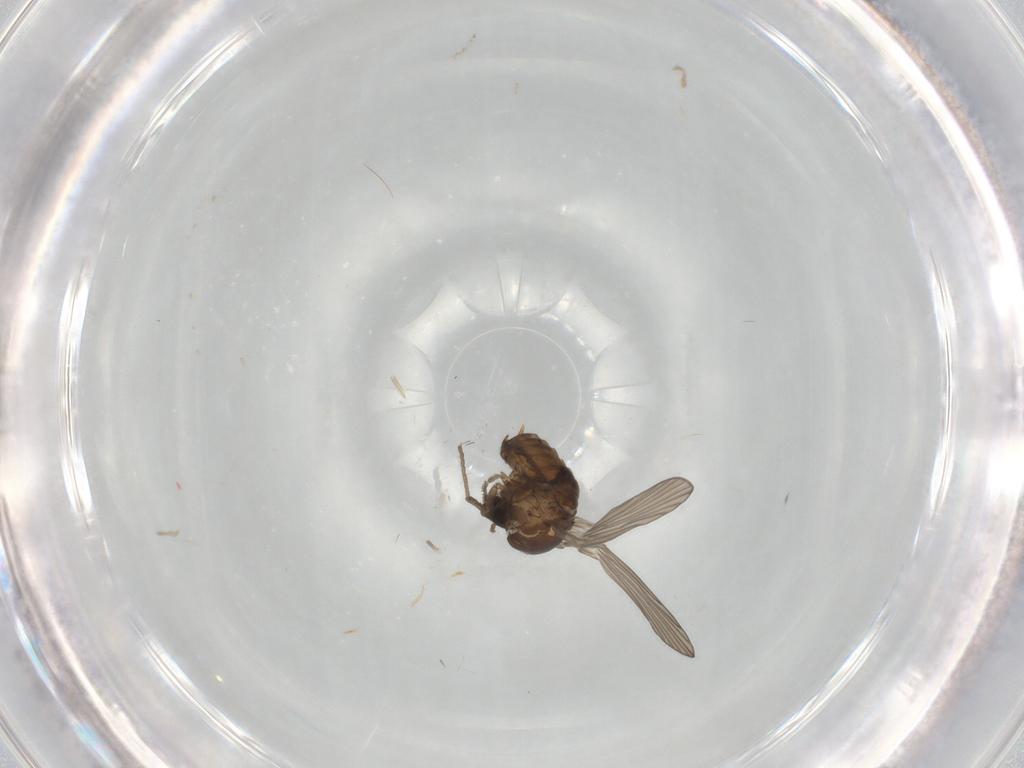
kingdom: Animalia
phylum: Arthropoda
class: Insecta
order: Diptera
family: Psychodidae
